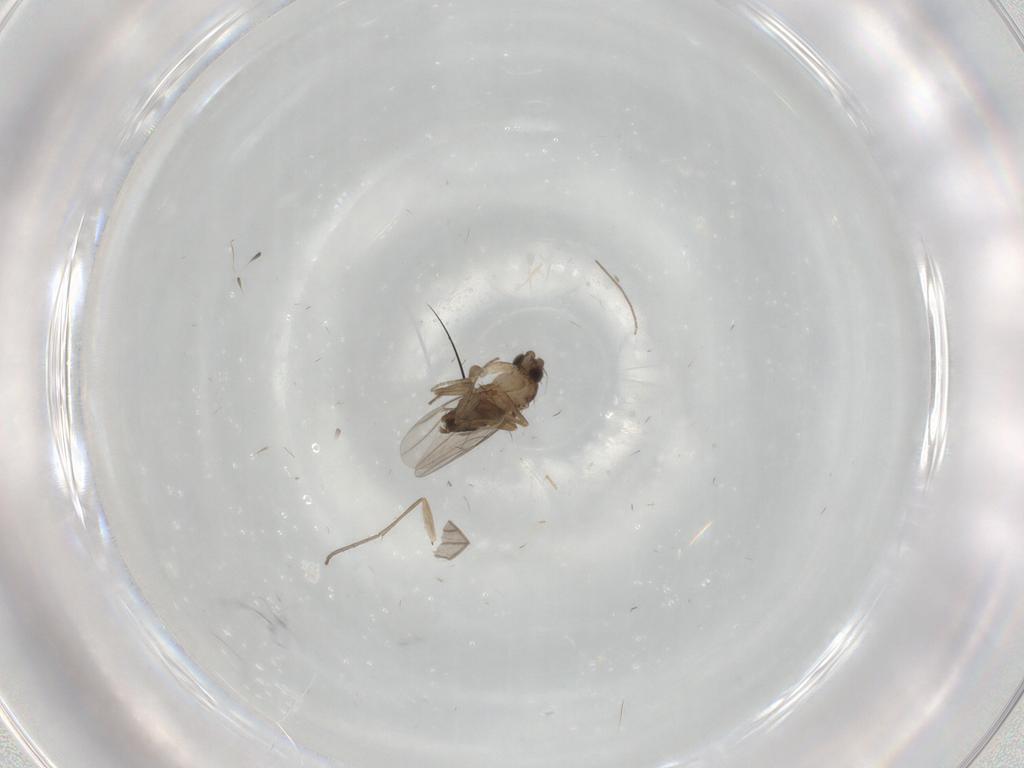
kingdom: Animalia
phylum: Arthropoda
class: Insecta
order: Diptera
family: Phoridae
